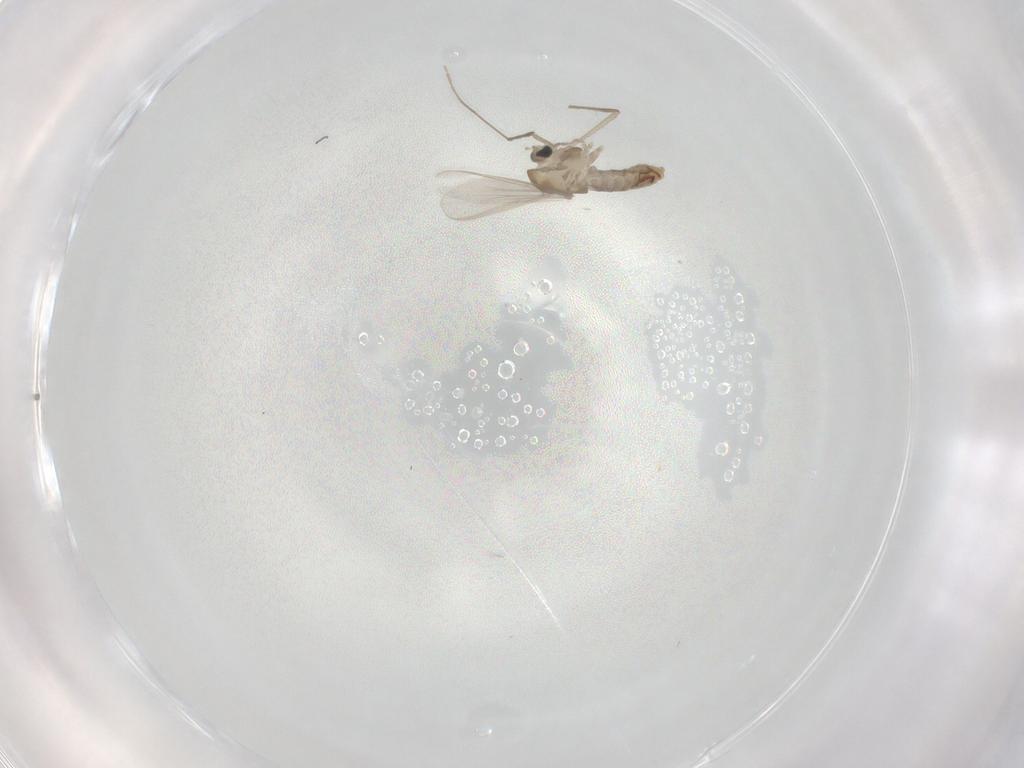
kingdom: Animalia
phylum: Arthropoda
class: Insecta
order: Diptera
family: Chironomidae
